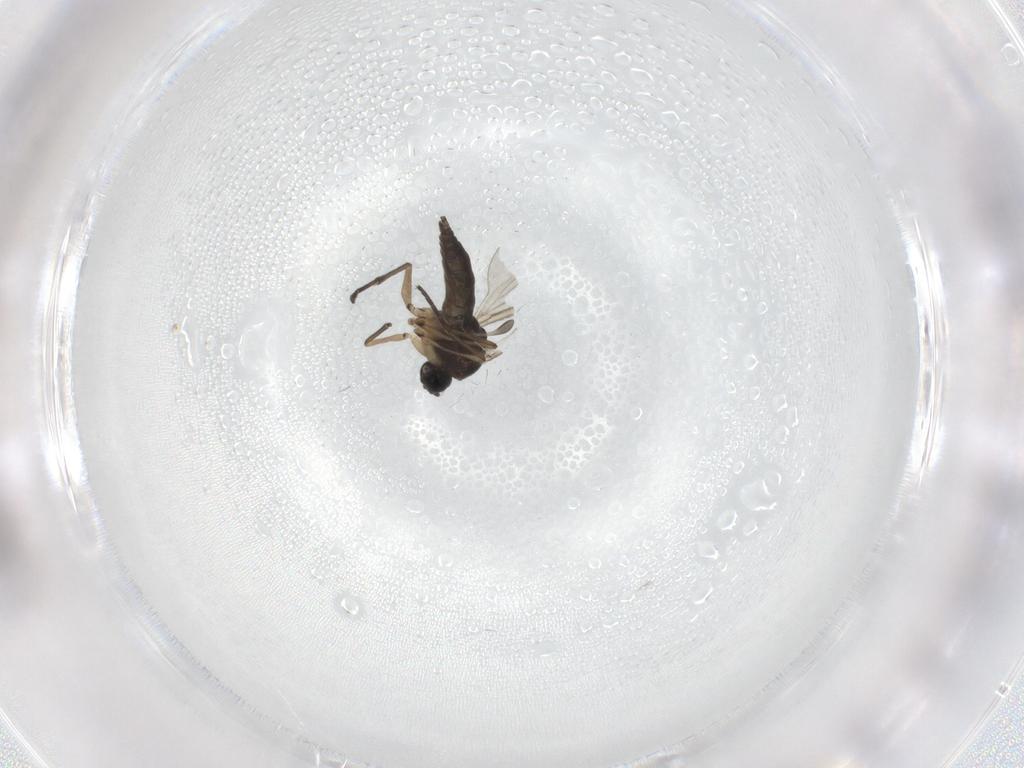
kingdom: Animalia
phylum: Arthropoda
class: Insecta
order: Diptera
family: Sciaridae
